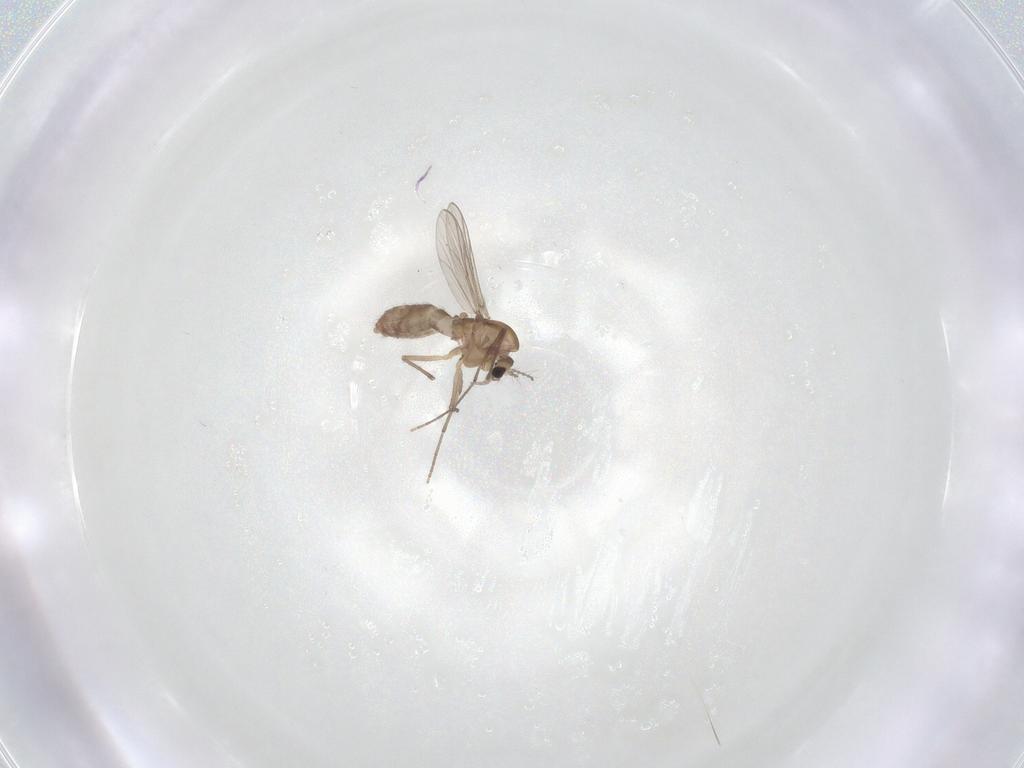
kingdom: Animalia
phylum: Arthropoda
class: Insecta
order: Diptera
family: Chironomidae
